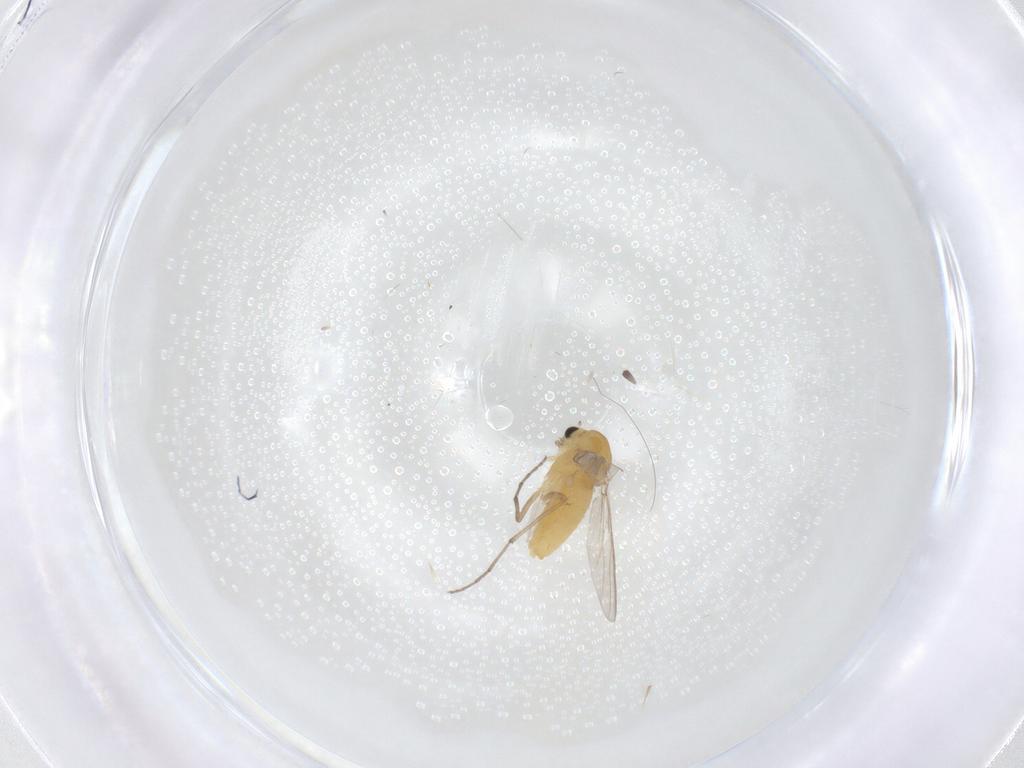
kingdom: Animalia
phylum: Arthropoda
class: Insecta
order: Diptera
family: Chironomidae
